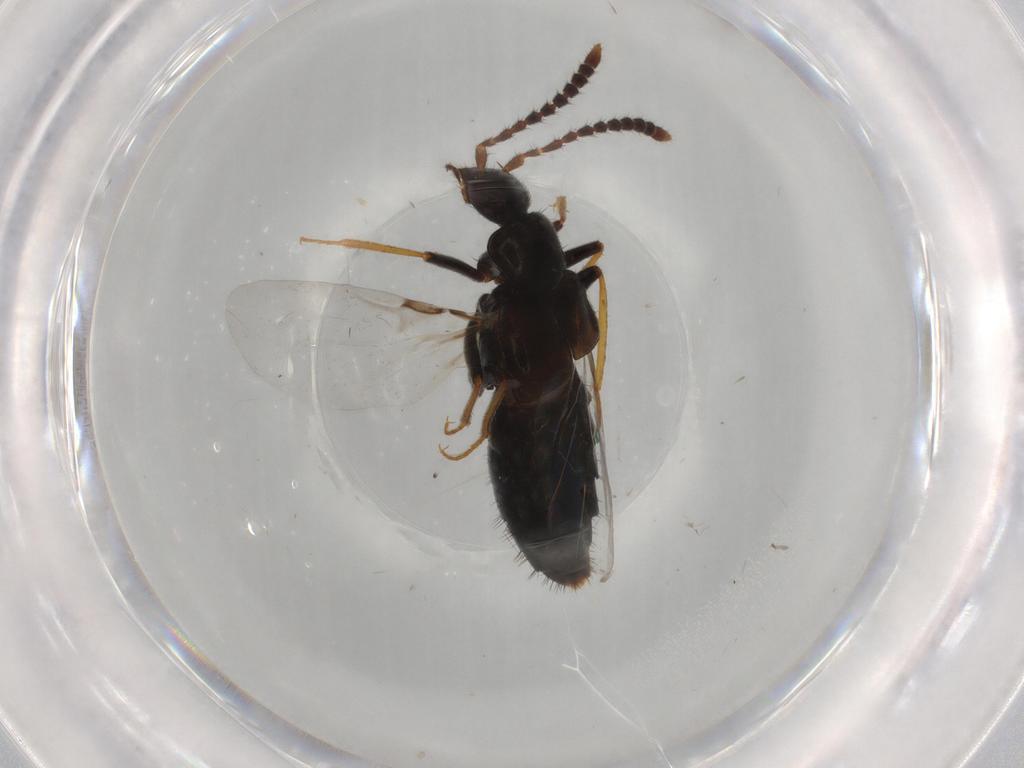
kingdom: Animalia
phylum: Arthropoda
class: Insecta
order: Coleoptera
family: Staphylinidae
